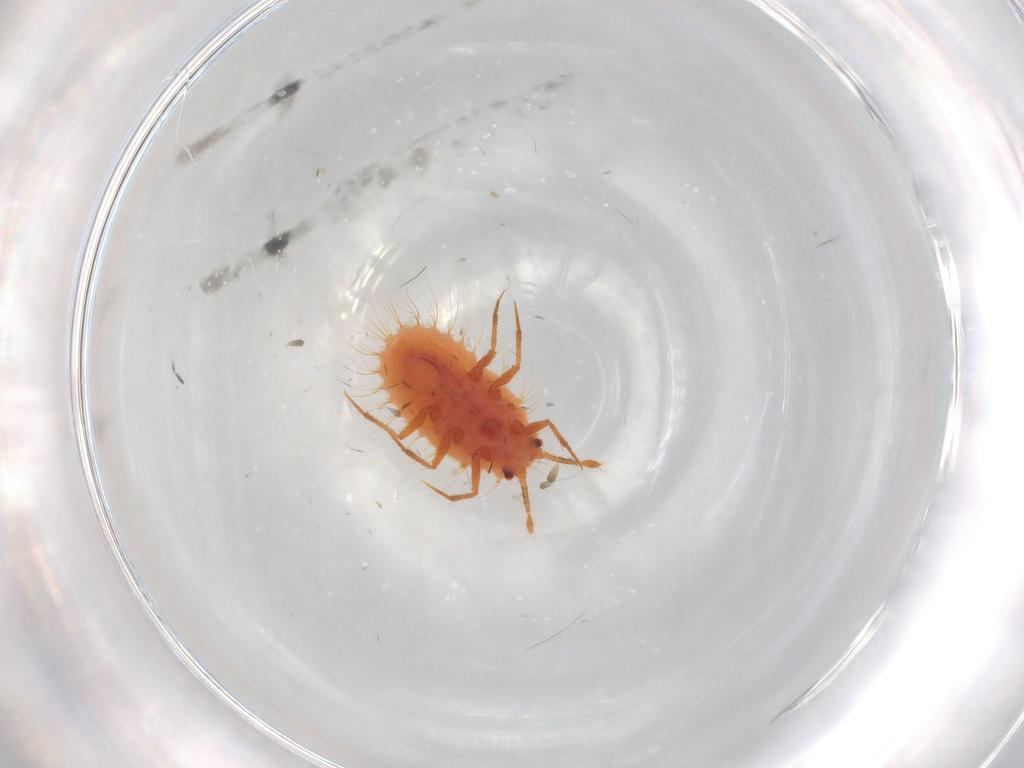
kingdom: Animalia
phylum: Arthropoda
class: Insecta
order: Hemiptera
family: Coccoidea_incertae_sedis
